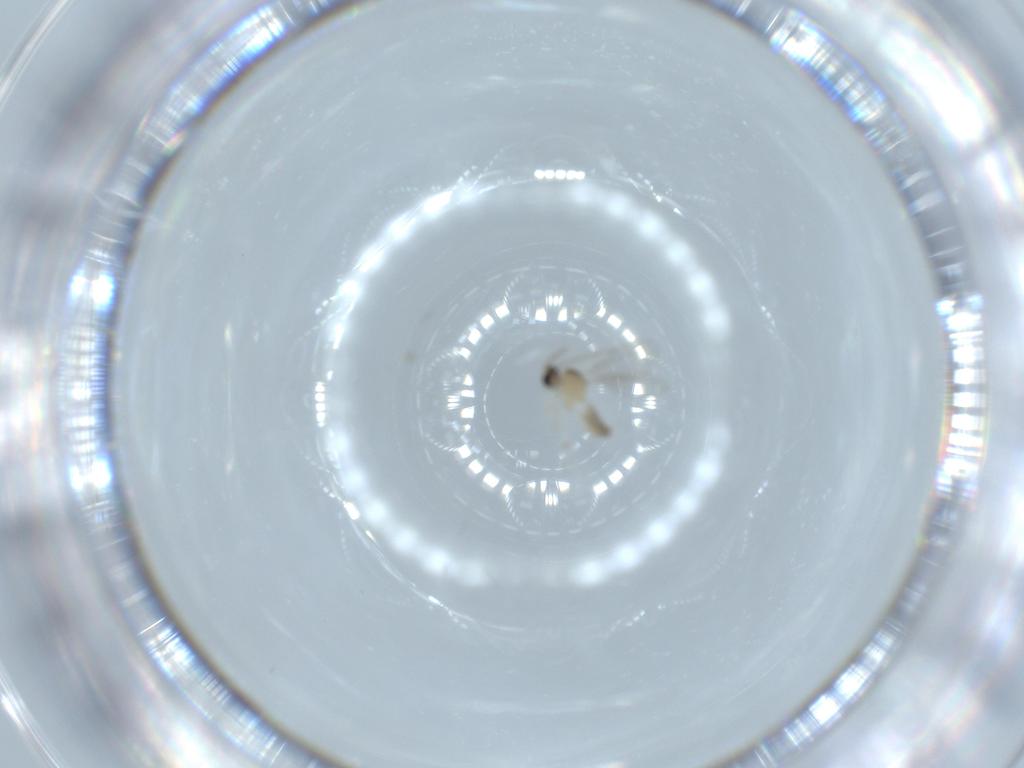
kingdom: Animalia
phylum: Arthropoda
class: Insecta
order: Diptera
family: Cecidomyiidae
